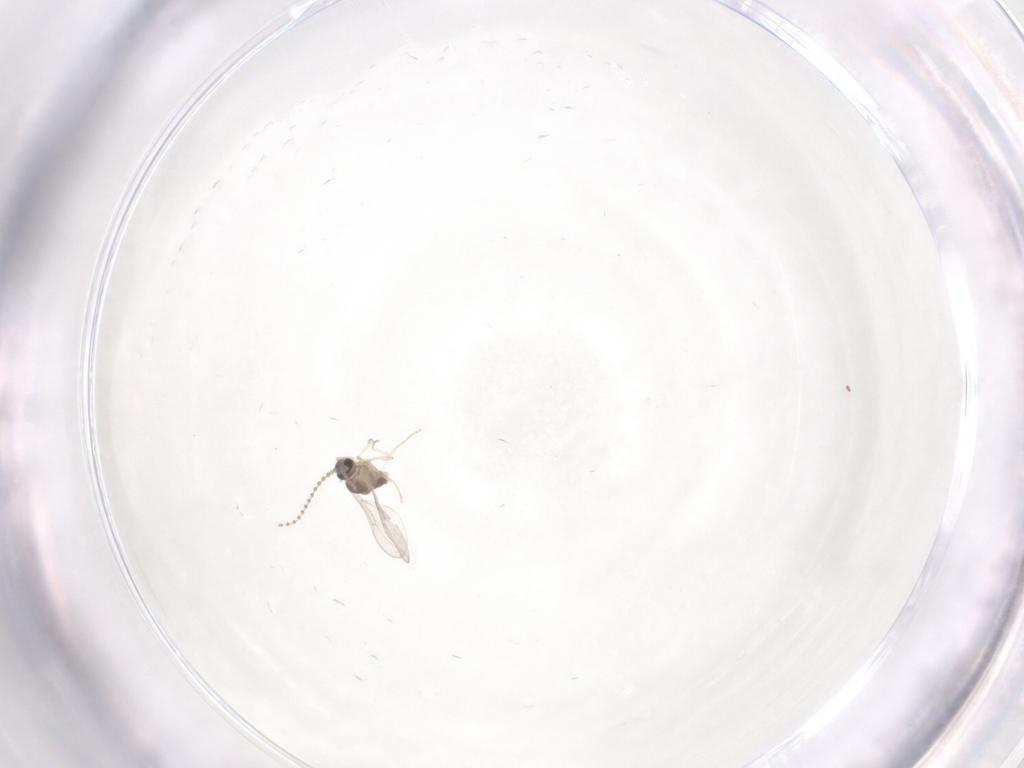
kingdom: Animalia
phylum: Arthropoda
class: Insecta
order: Diptera
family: Cecidomyiidae
